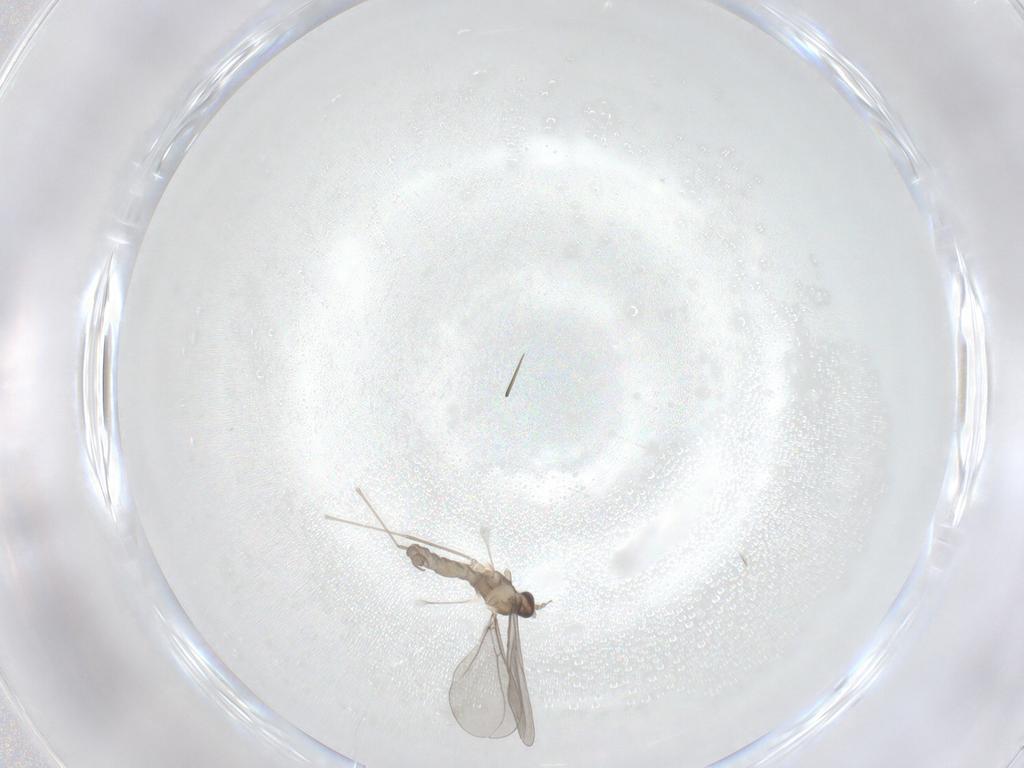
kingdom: Animalia
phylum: Arthropoda
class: Insecta
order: Diptera
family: Cecidomyiidae
